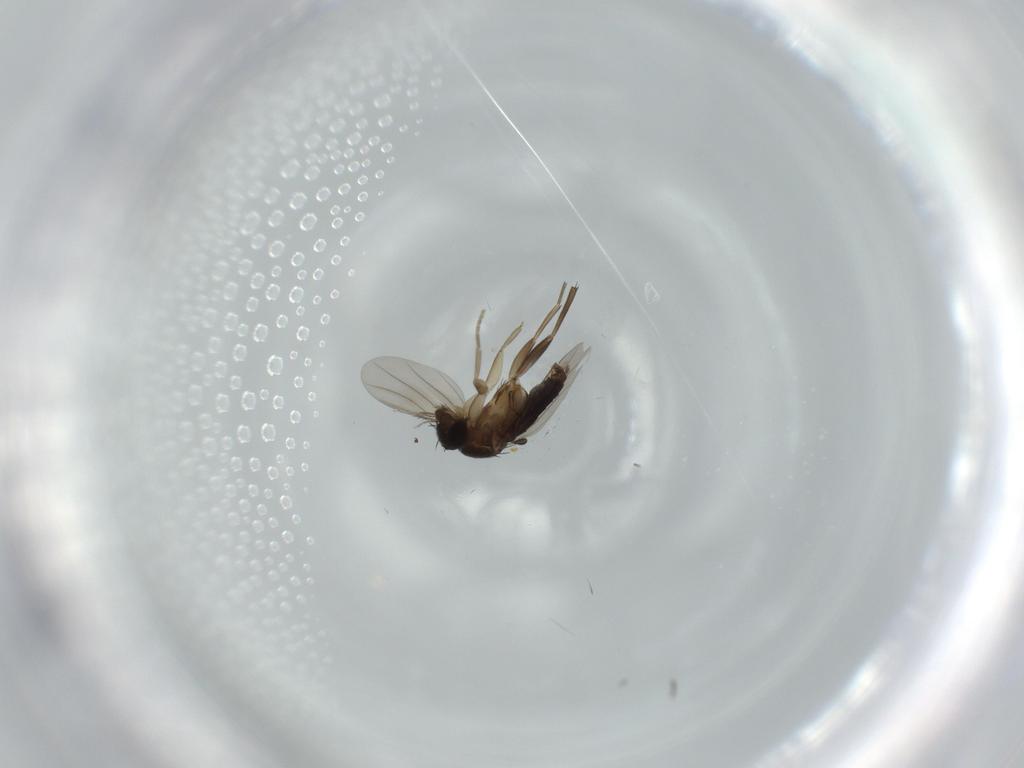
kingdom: Animalia
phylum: Arthropoda
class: Insecta
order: Diptera
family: Phoridae
